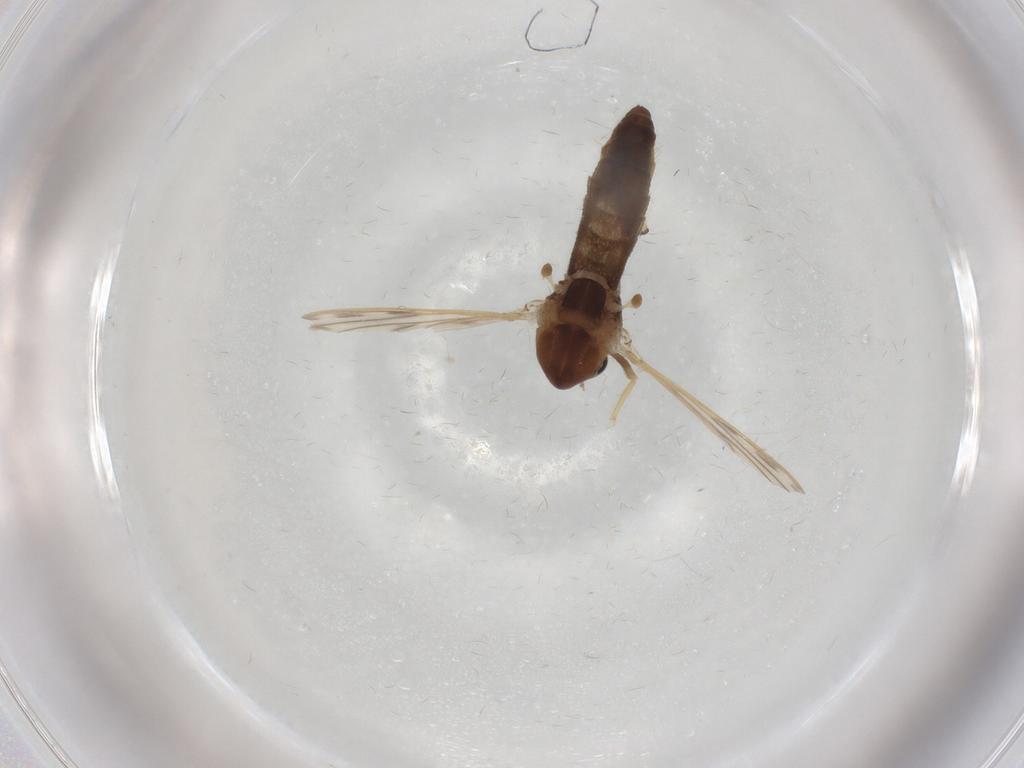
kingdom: Animalia
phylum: Arthropoda
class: Insecta
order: Diptera
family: Chironomidae
